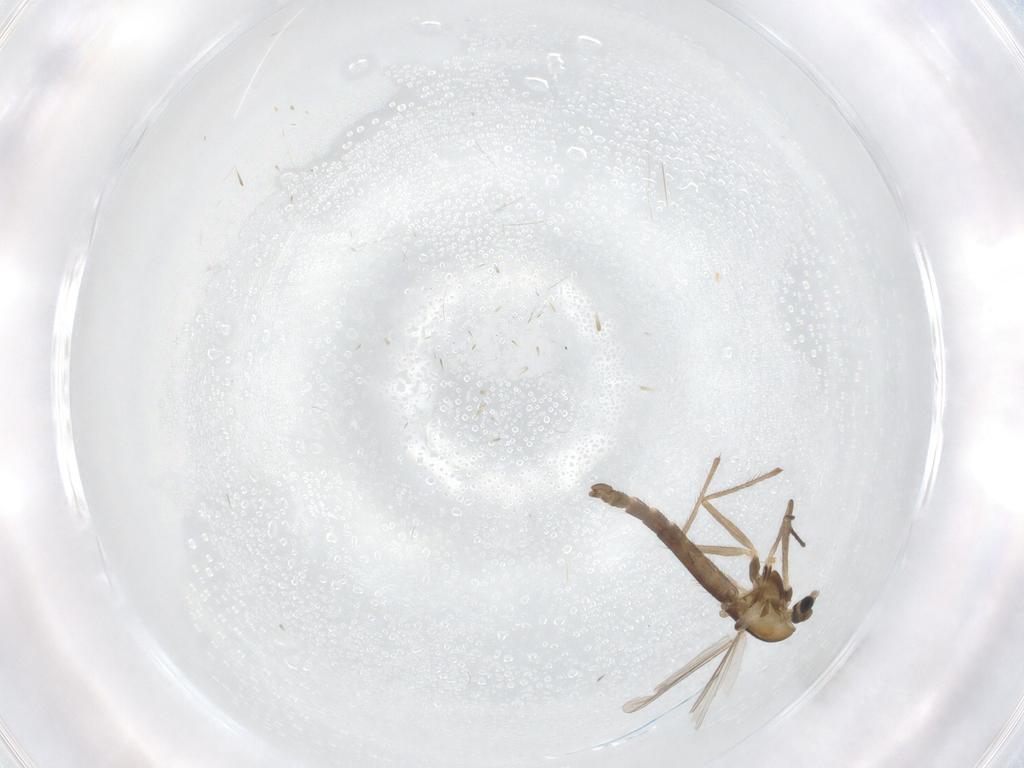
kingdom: Animalia
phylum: Arthropoda
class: Insecta
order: Diptera
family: Chironomidae
